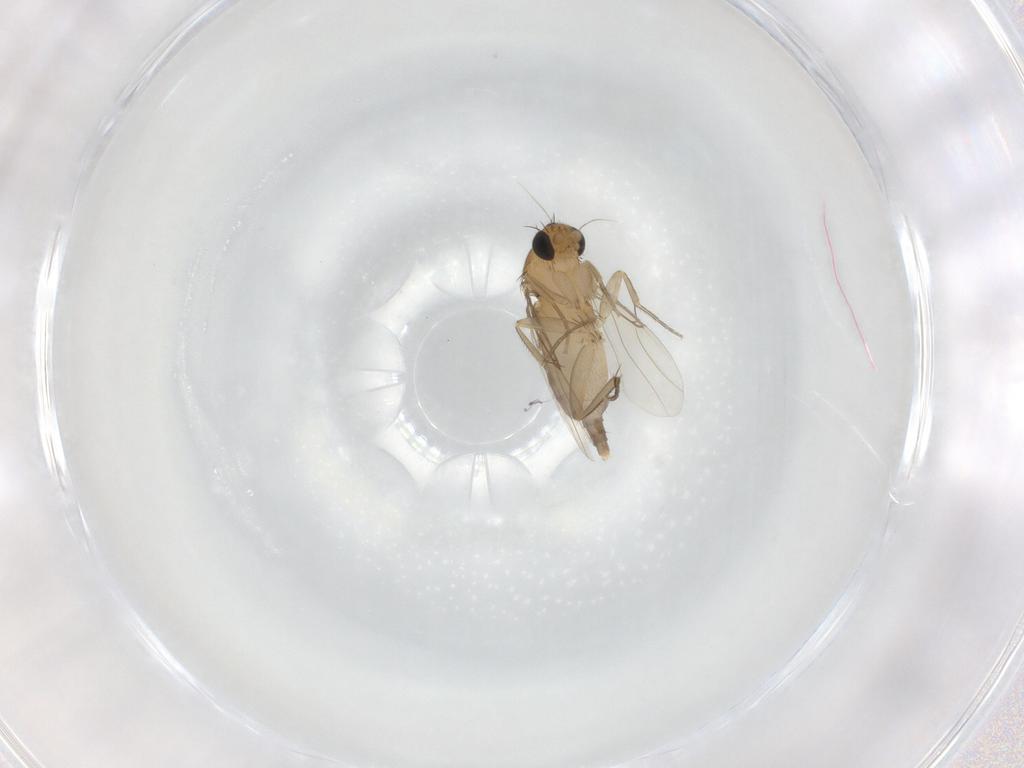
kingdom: Animalia
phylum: Arthropoda
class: Insecta
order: Diptera
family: Phoridae
